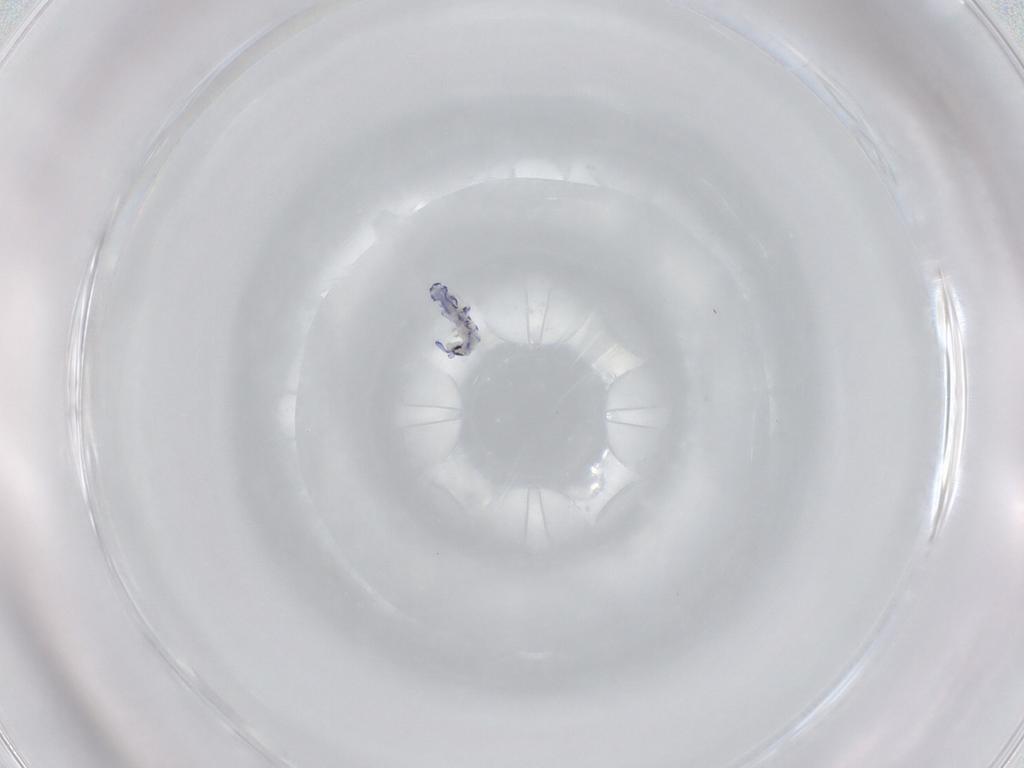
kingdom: Animalia
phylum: Arthropoda
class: Collembola
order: Entomobryomorpha
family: Entomobryidae
